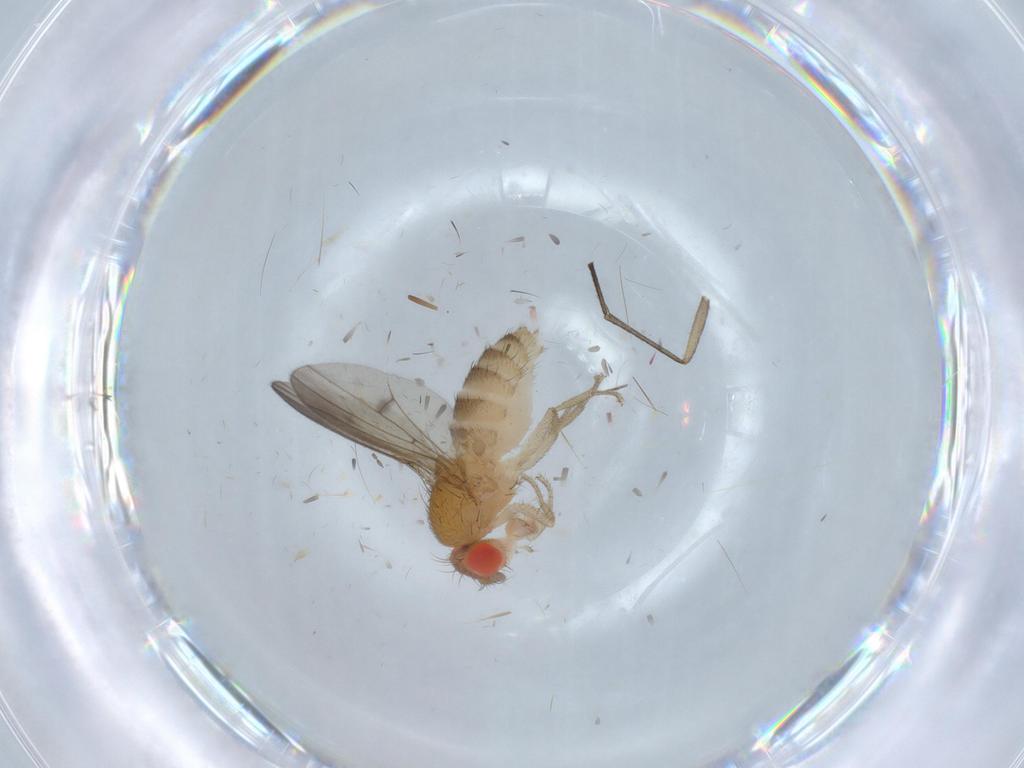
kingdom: Animalia
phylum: Arthropoda
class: Insecta
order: Diptera
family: Drosophilidae
